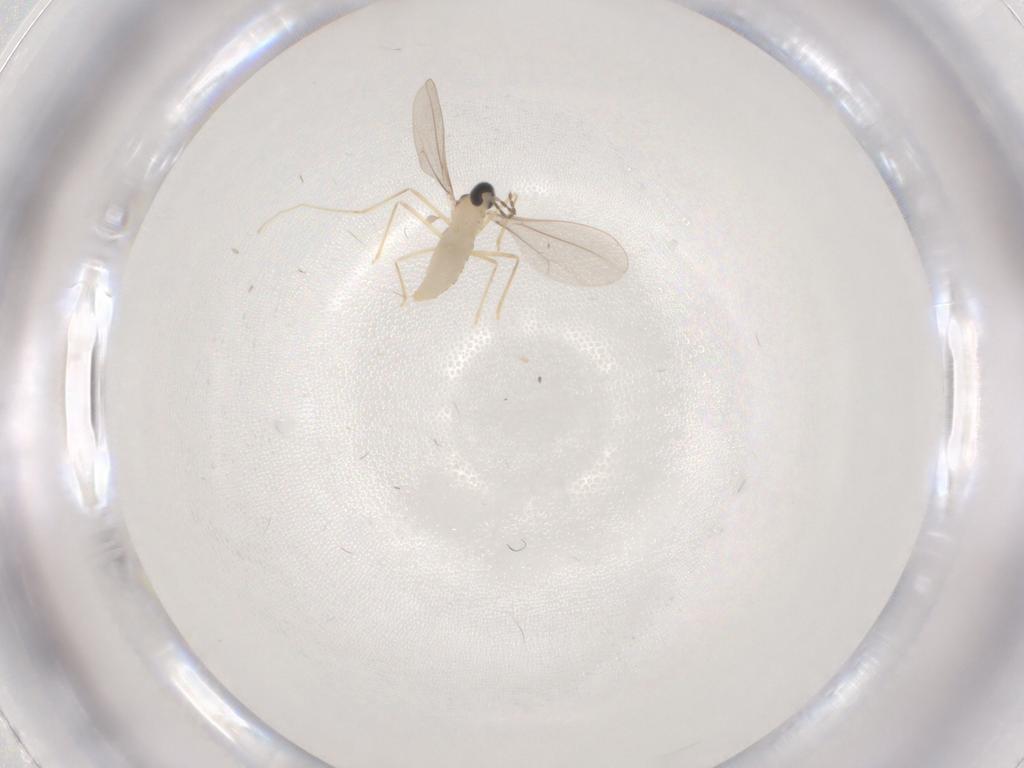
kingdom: Animalia
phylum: Arthropoda
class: Insecta
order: Diptera
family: Cecidomyiidae
